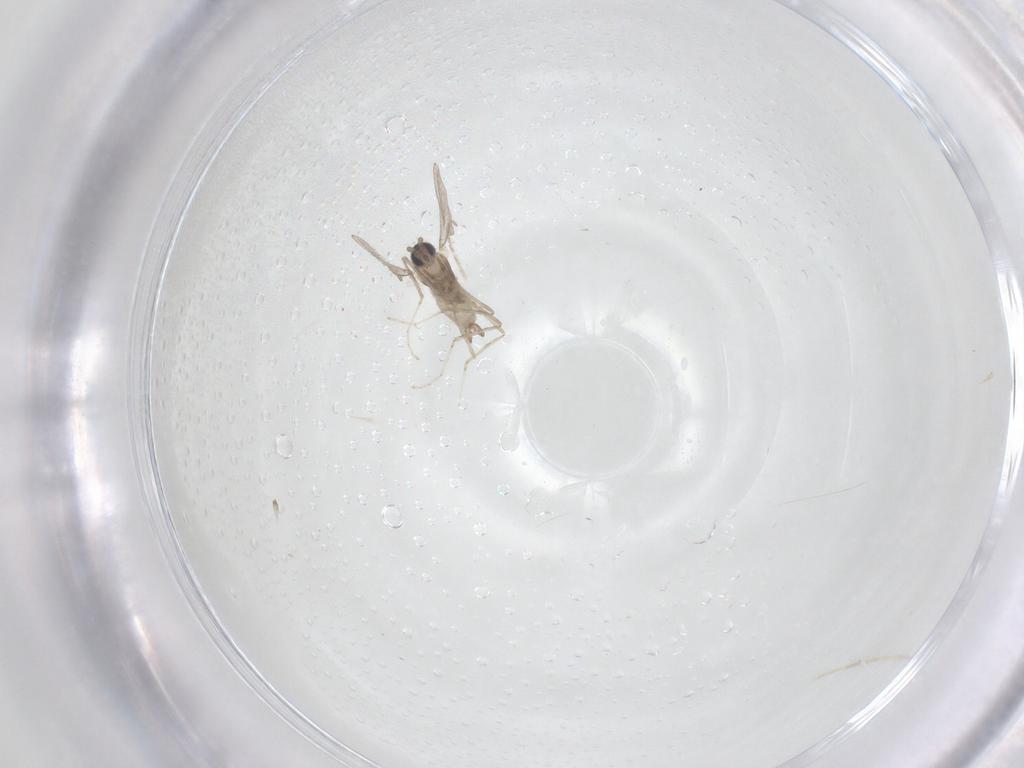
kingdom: Animalia
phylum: Arthropoda
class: Insecta
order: Diptera
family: Cecidomyiidae
